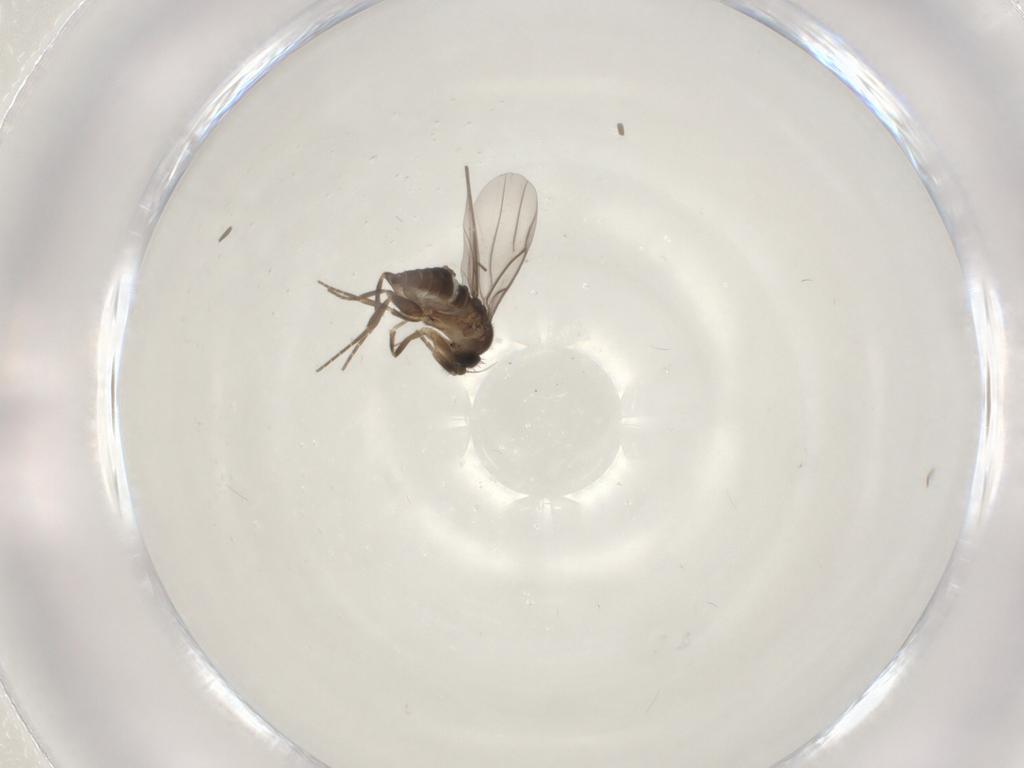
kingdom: Animalia
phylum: Arthropoda
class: Insecta
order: Diptera
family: Phoridae
